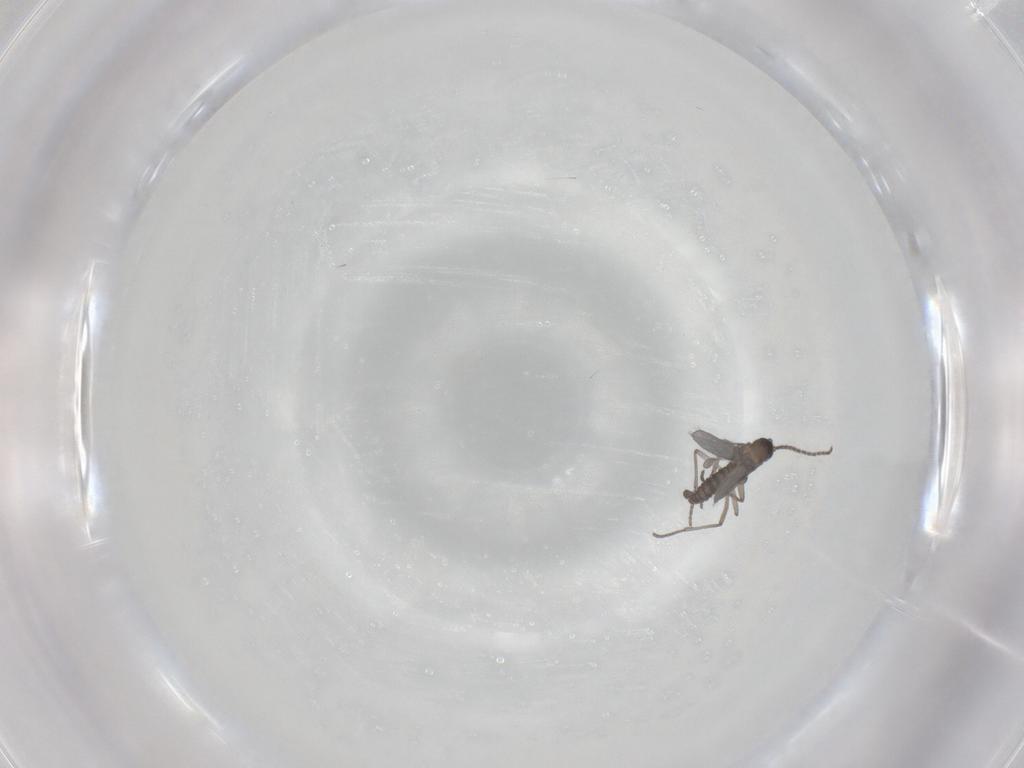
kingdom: Animalia
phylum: Arthropoda
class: Insecta
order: Diptera
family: Sciaridae
